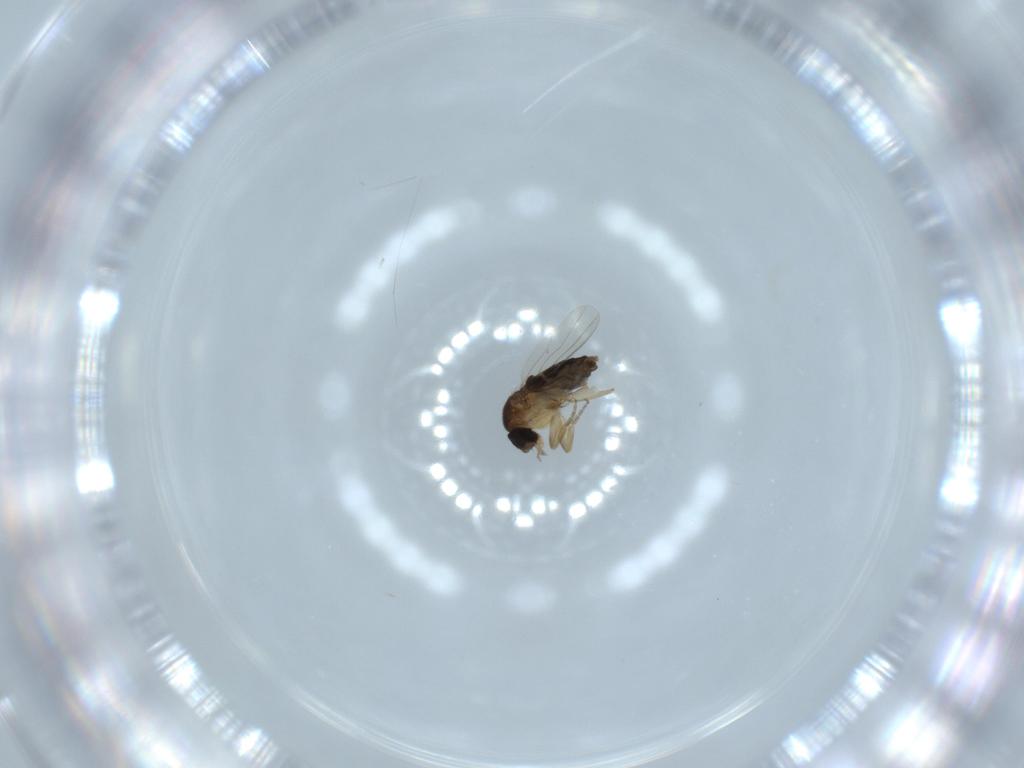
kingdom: Animalia
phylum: Arthropoda
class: Insecta
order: Diptera
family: Phoridae
